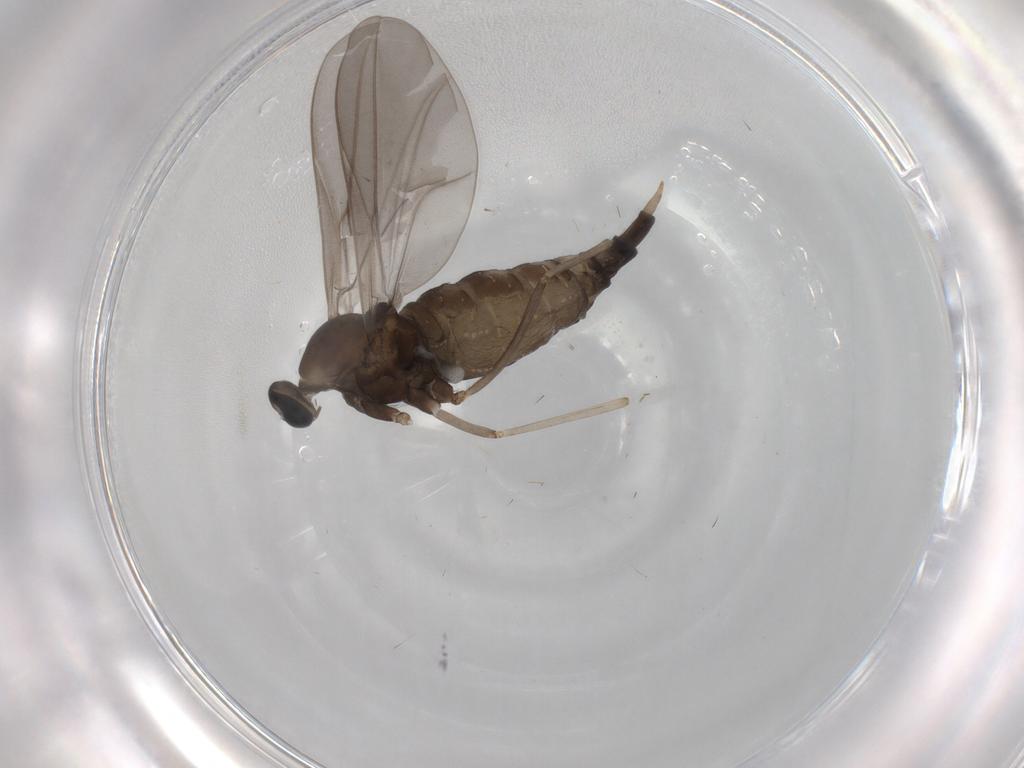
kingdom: Animalia
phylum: Arthropoda
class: Insecta
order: Diptera
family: Cecidomyiidae
